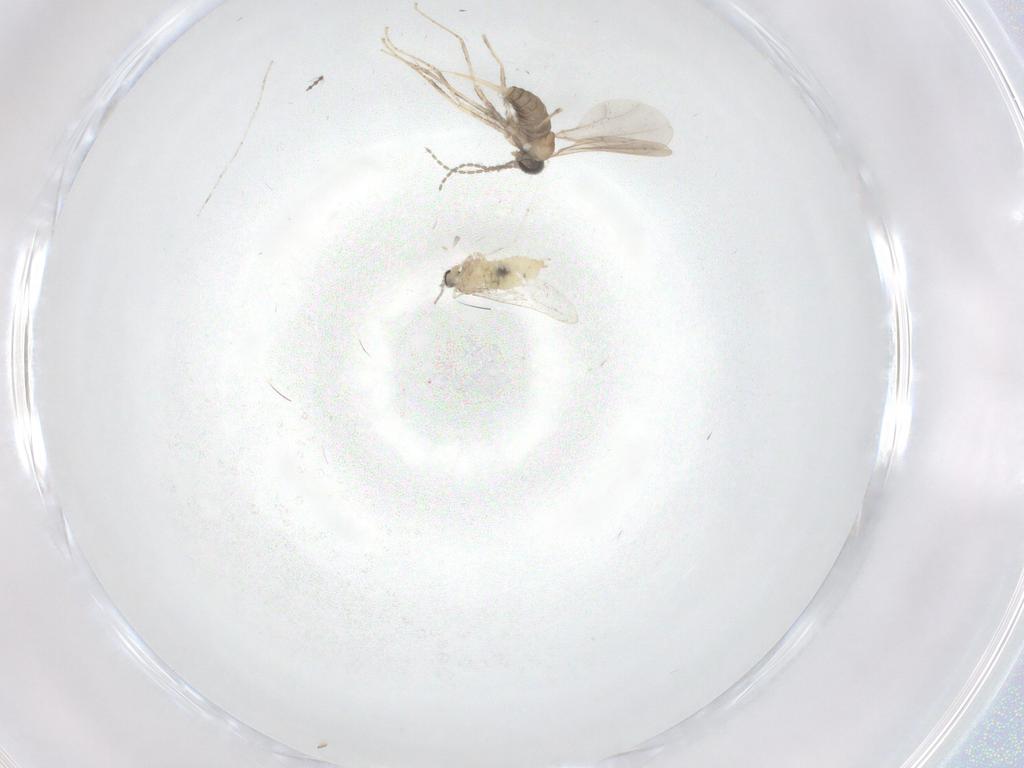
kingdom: Animalia
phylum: Arthropoda
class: Insecta
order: Diptera
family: Cecidomyiidae
